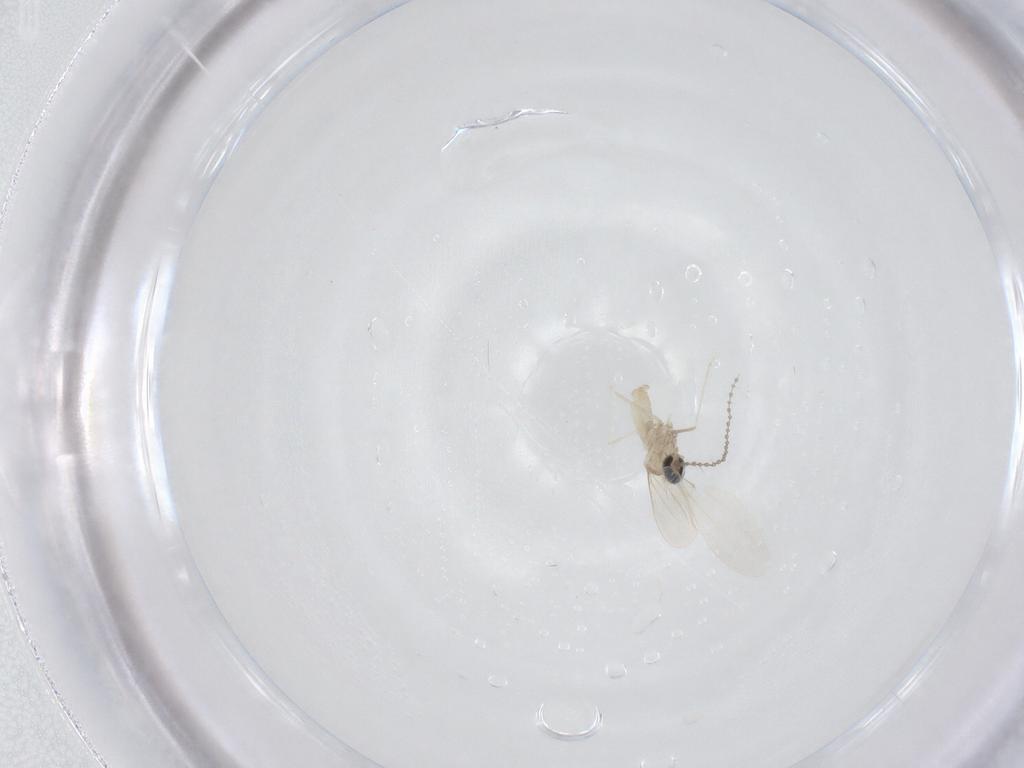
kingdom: Animalia
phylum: Arthropoda
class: Insecta
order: Diptera
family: Cecidomyiidae
